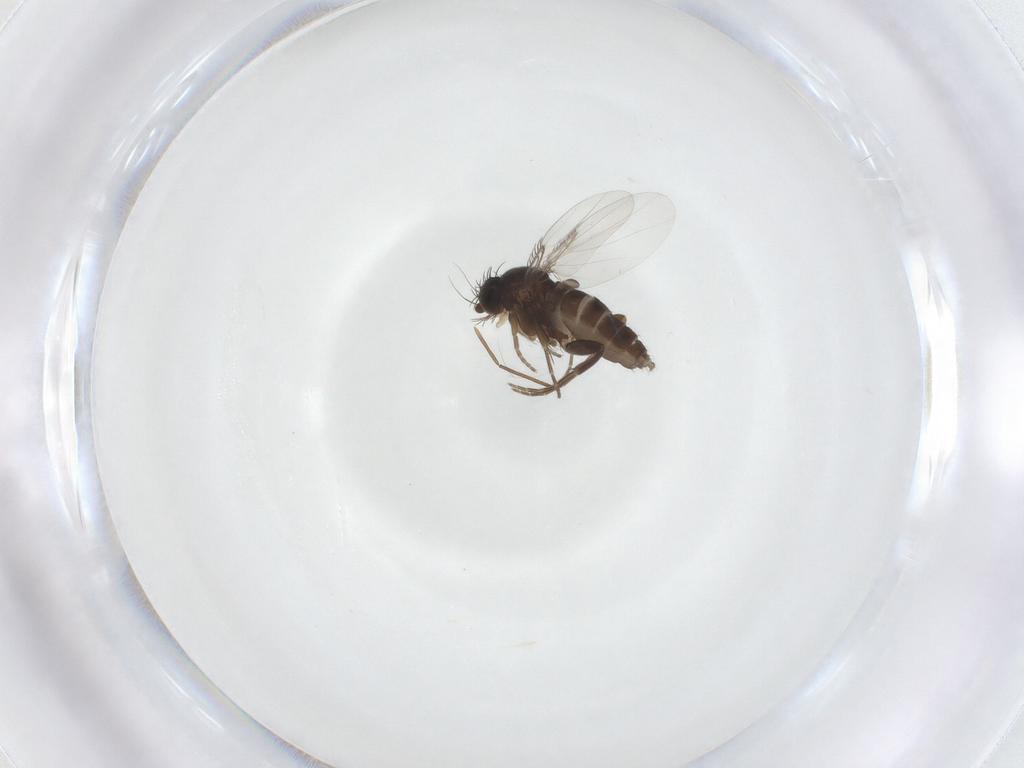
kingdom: Animalia
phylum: Arthropoda
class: Insecta
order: Diptera
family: Phoridae
